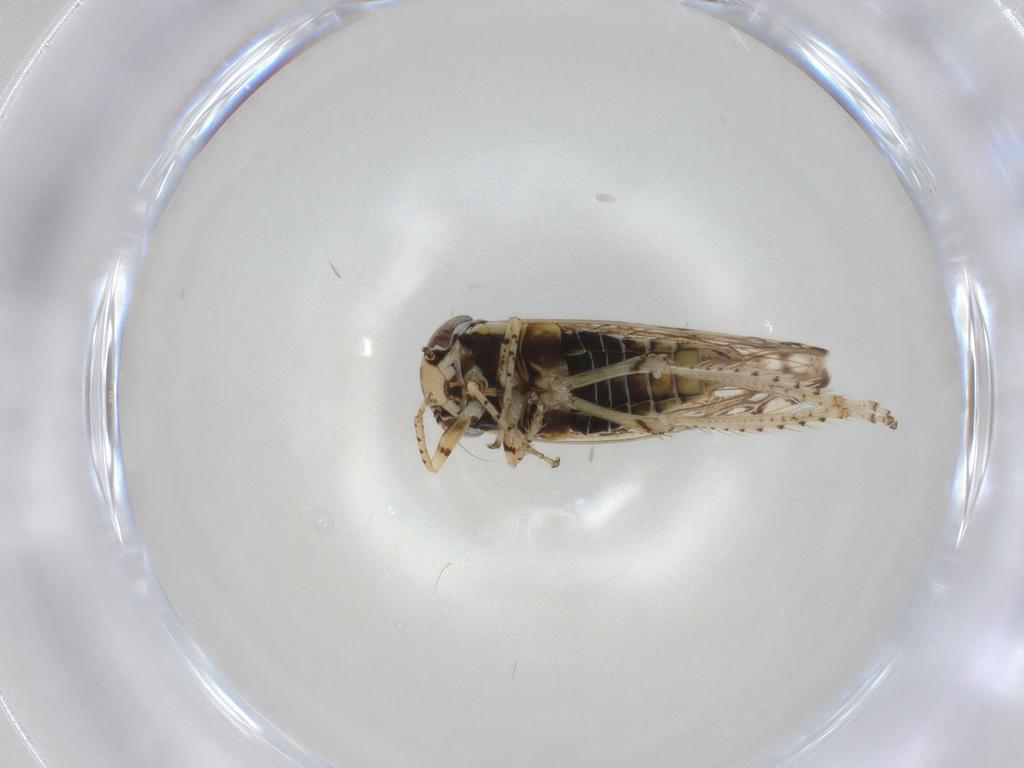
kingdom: Animalia
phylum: Arthropoda
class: Insecta
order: Hemiptera
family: Cicadellidae
